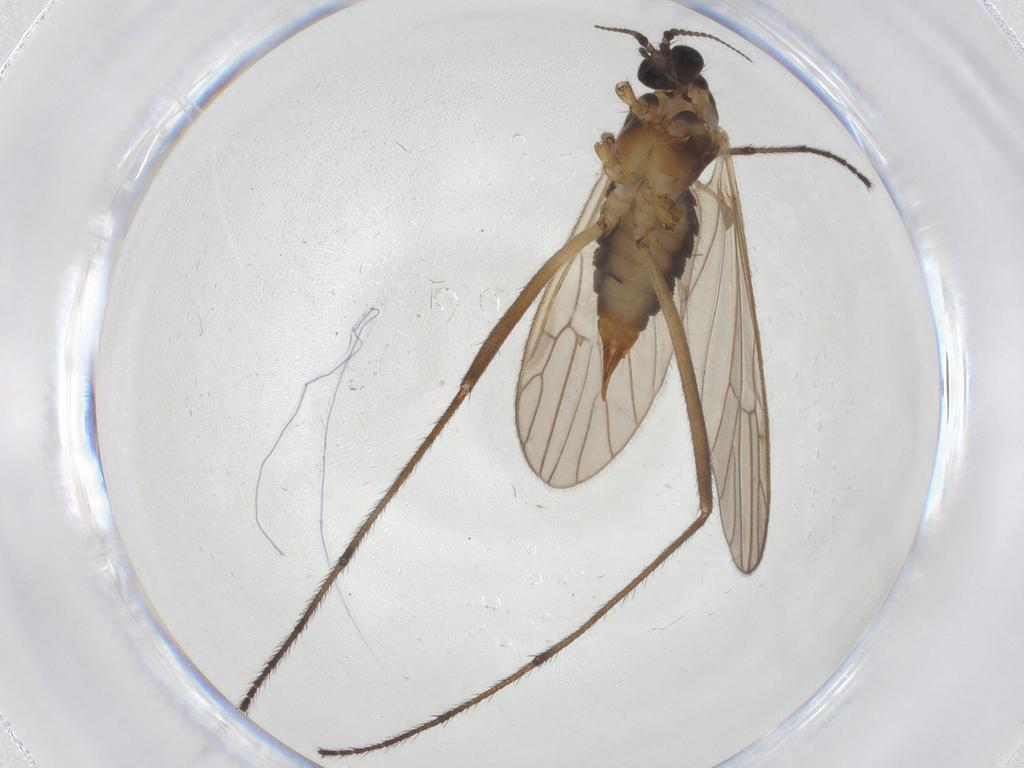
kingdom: Animalia
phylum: Arthropoda
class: Insecta
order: Diptera
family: Agromyzidae
